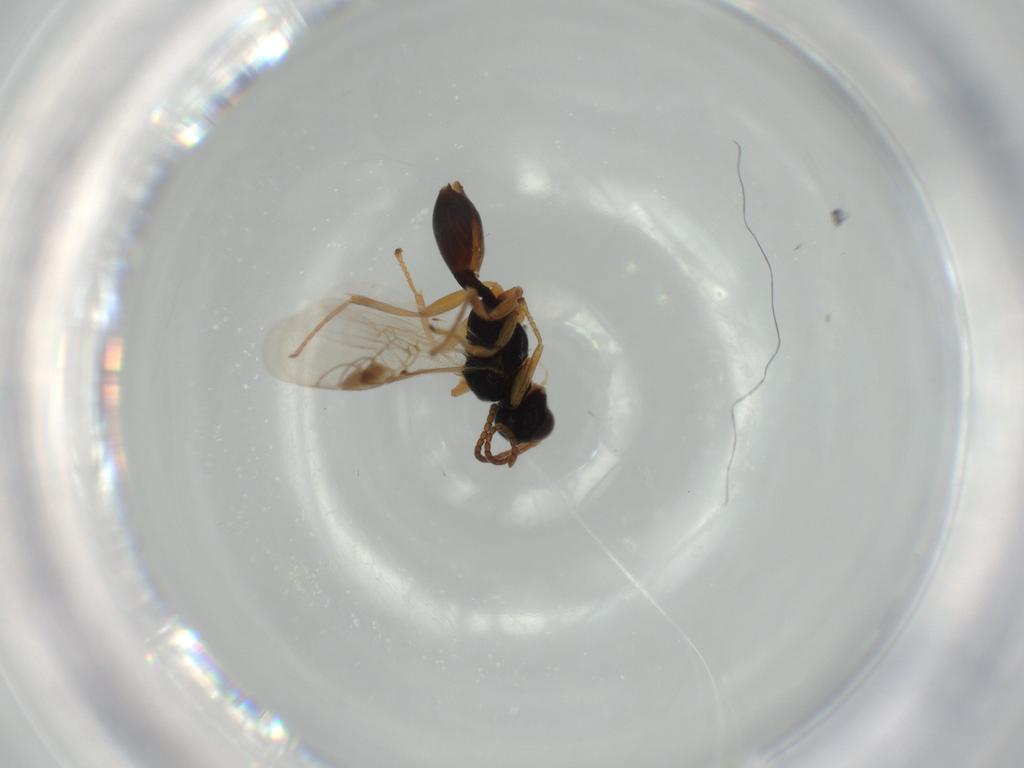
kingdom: Animalia
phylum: Arthropoda
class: Insecta
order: Hymenoptera
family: Braconidae
